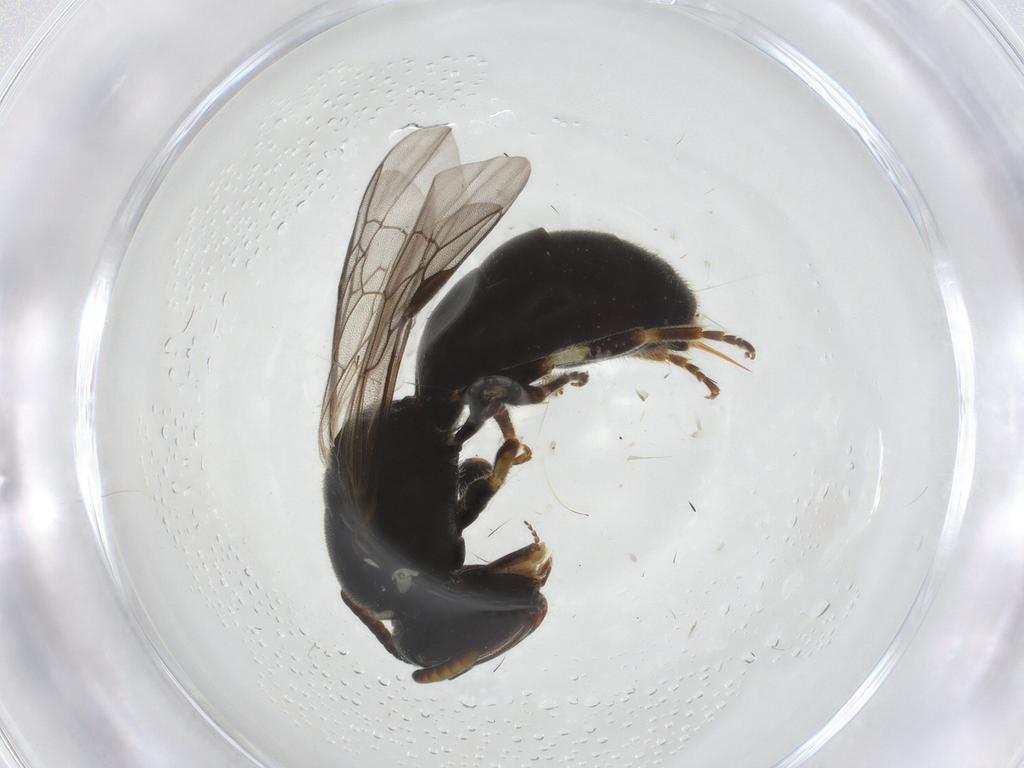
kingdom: Animalia
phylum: Arthropoda
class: Insecta
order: Hymenoptera
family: Colletidae
